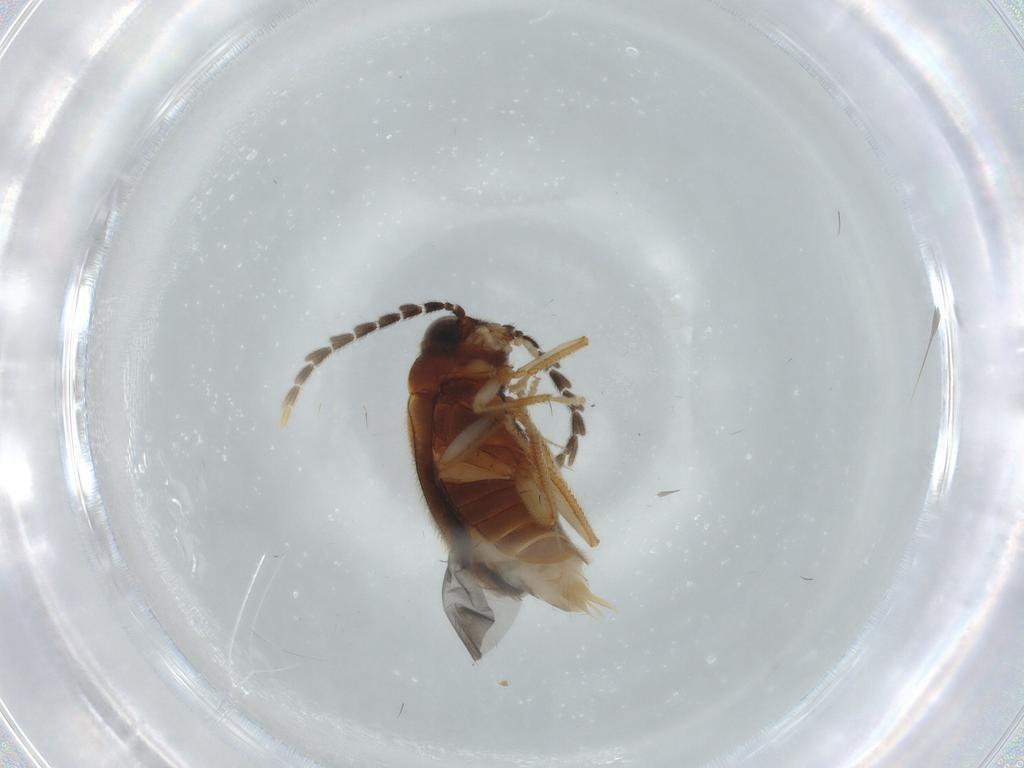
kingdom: Animalia
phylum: Arthropoda
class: Insecta
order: Coleoptera
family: Ptilodactylidae
